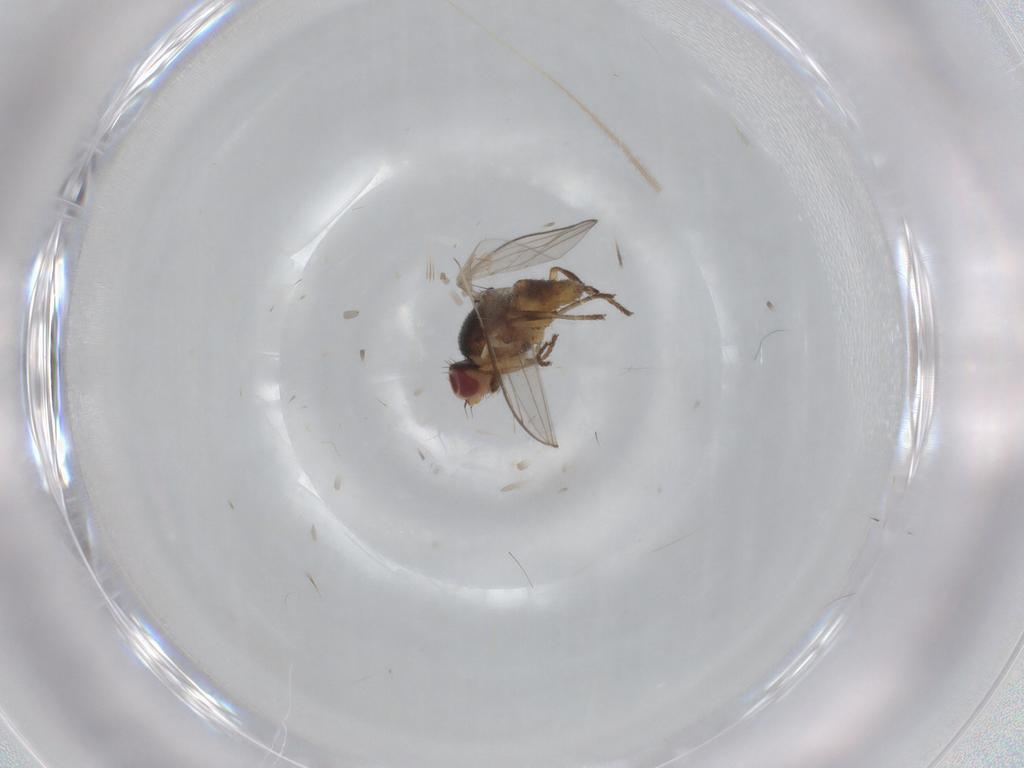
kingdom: Animalia
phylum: Arthropoda
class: Insecta
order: Diptera
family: Chloropidae
